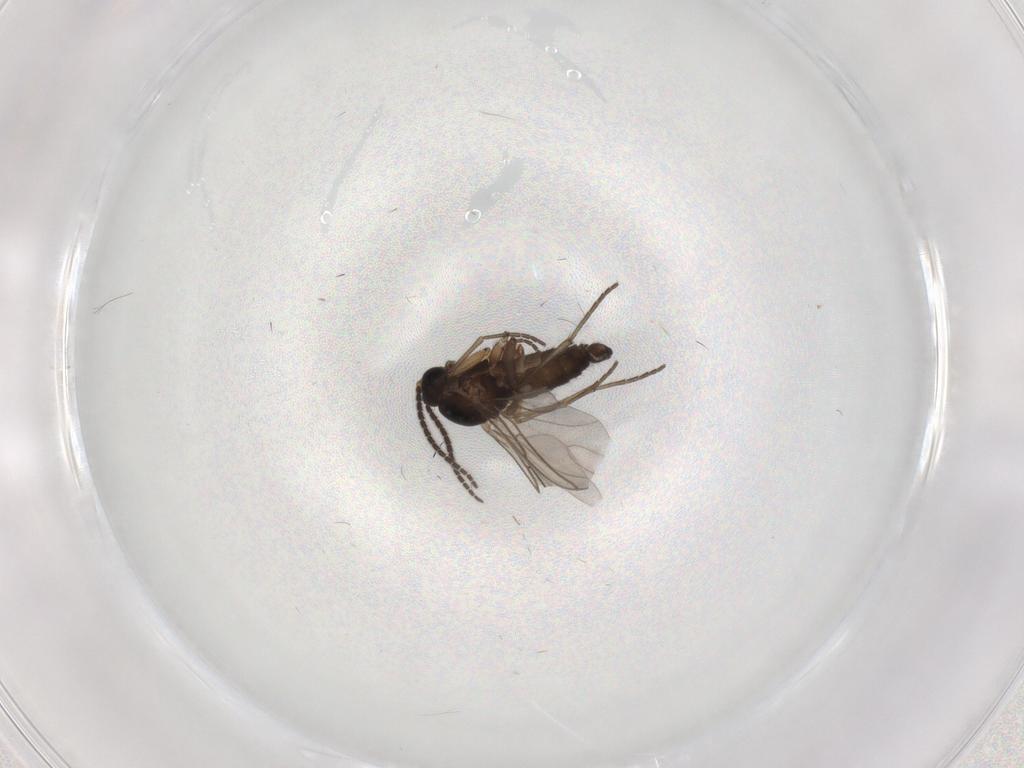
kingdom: Animalia
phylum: Arthropoda
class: Insecta
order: Diptera
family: Sciaridae
